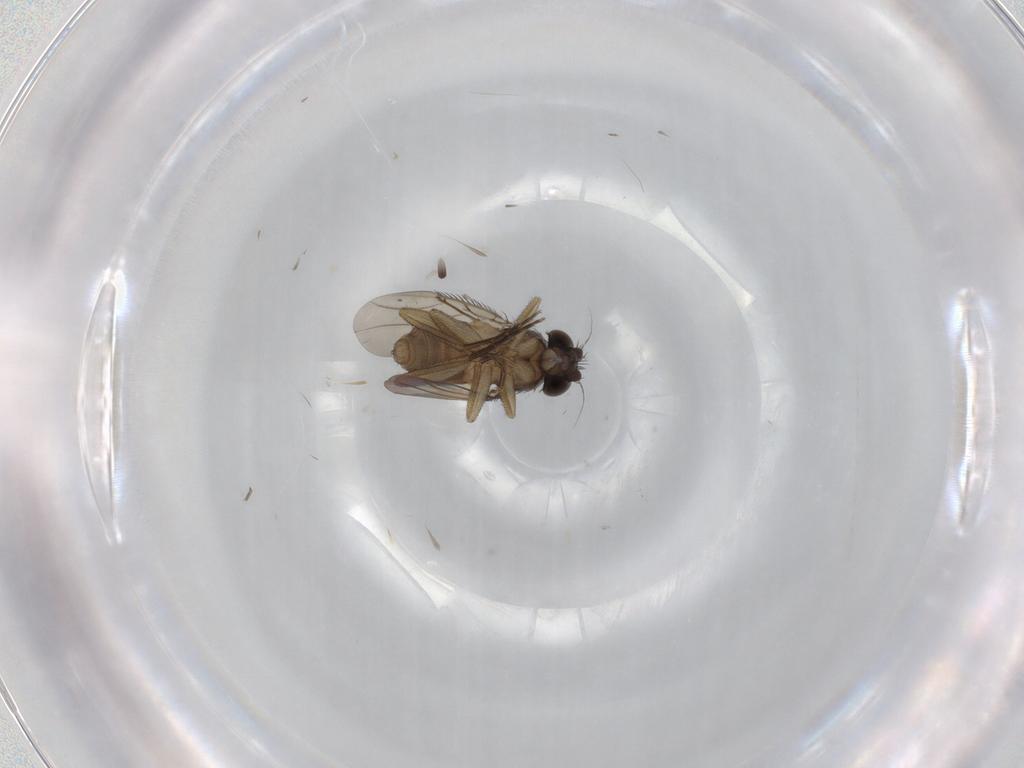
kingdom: Animalia
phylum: Arthropoda
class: Insecta
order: Diptera
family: Phoridae
